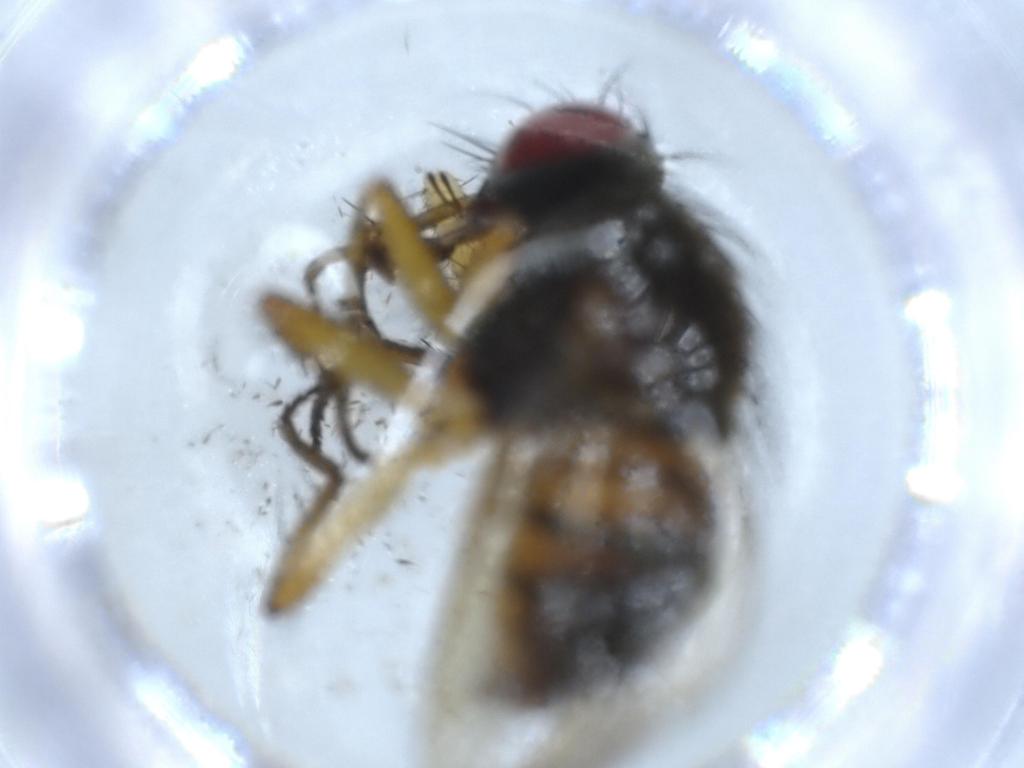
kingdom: Animalia
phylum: Arthropoda
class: Insecta
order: Diptera
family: Muscidae
